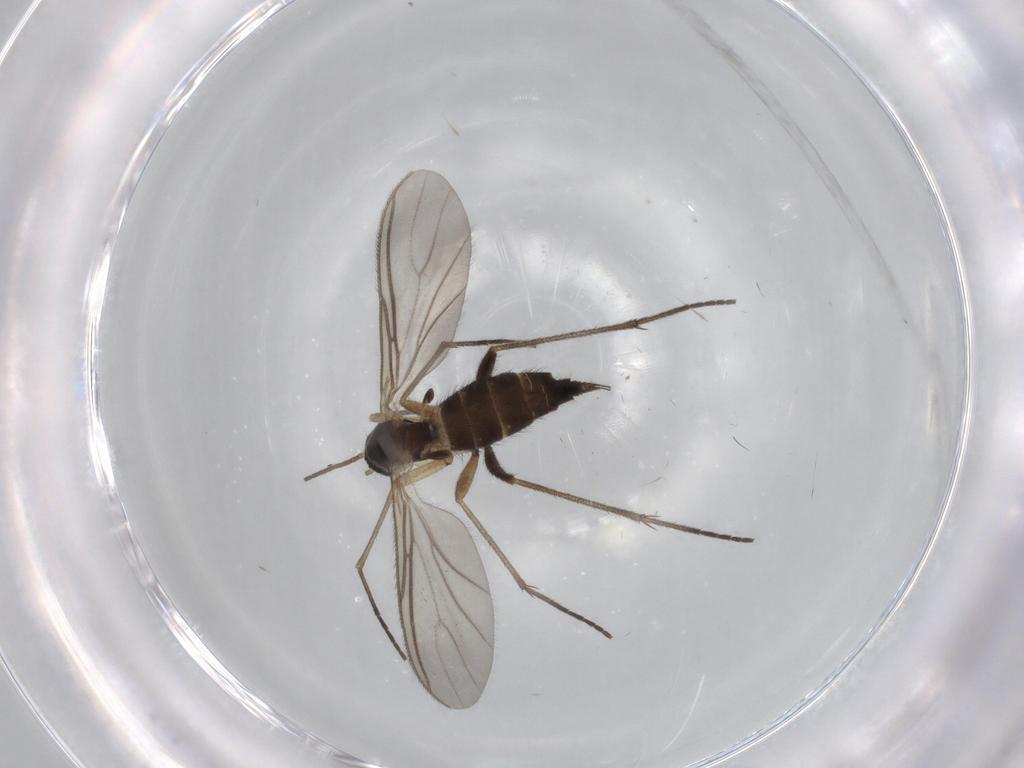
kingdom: Animalia
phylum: Arthropoda
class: Insecta
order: Diptera
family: Sciaridae
